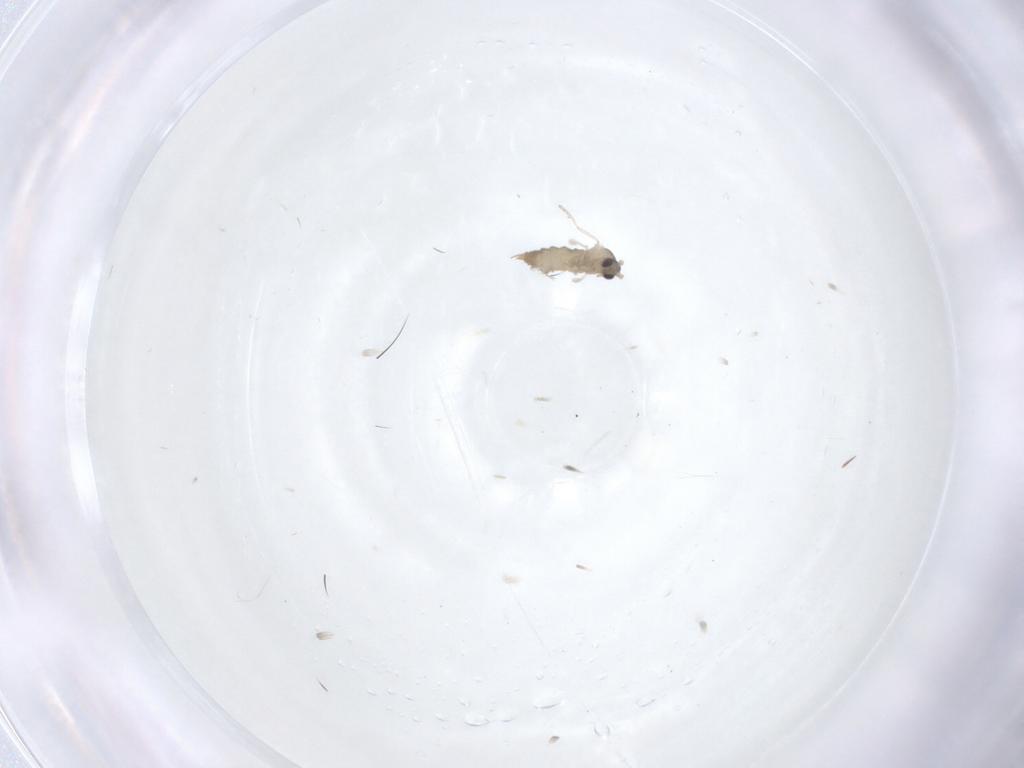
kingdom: Animalia
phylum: Arthropoda
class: Insecta
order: Diptera
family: Cecidomyiidae
